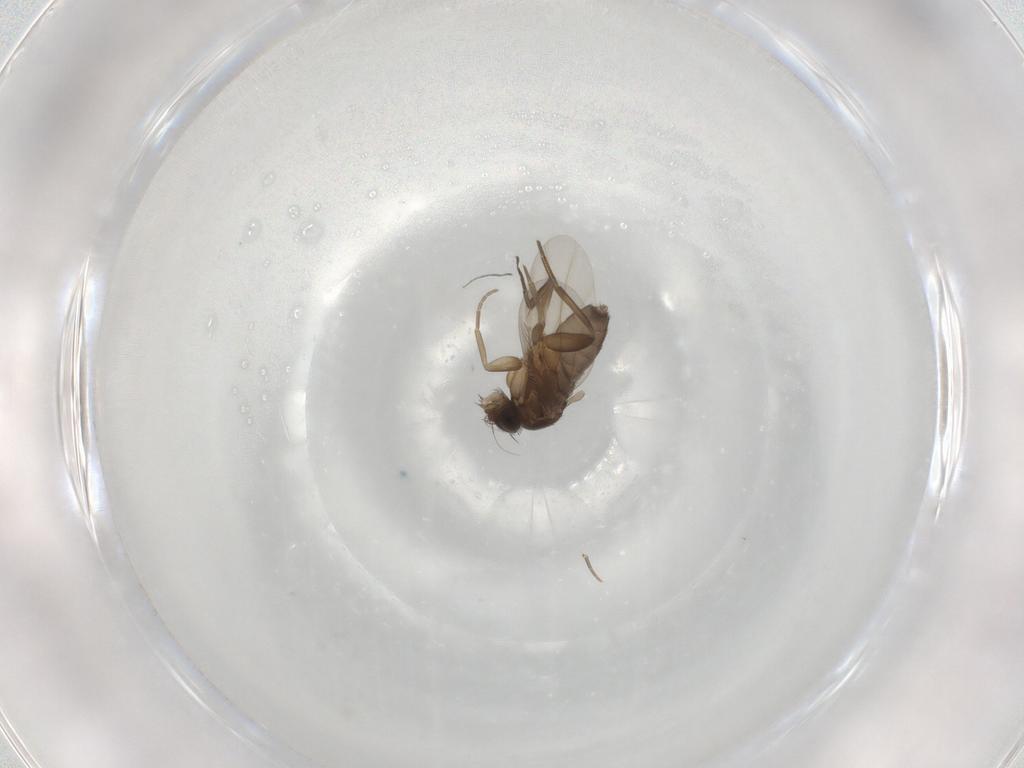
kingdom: Animalia
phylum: Arthropoda
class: Insecta
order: Diptera
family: Phoridae
